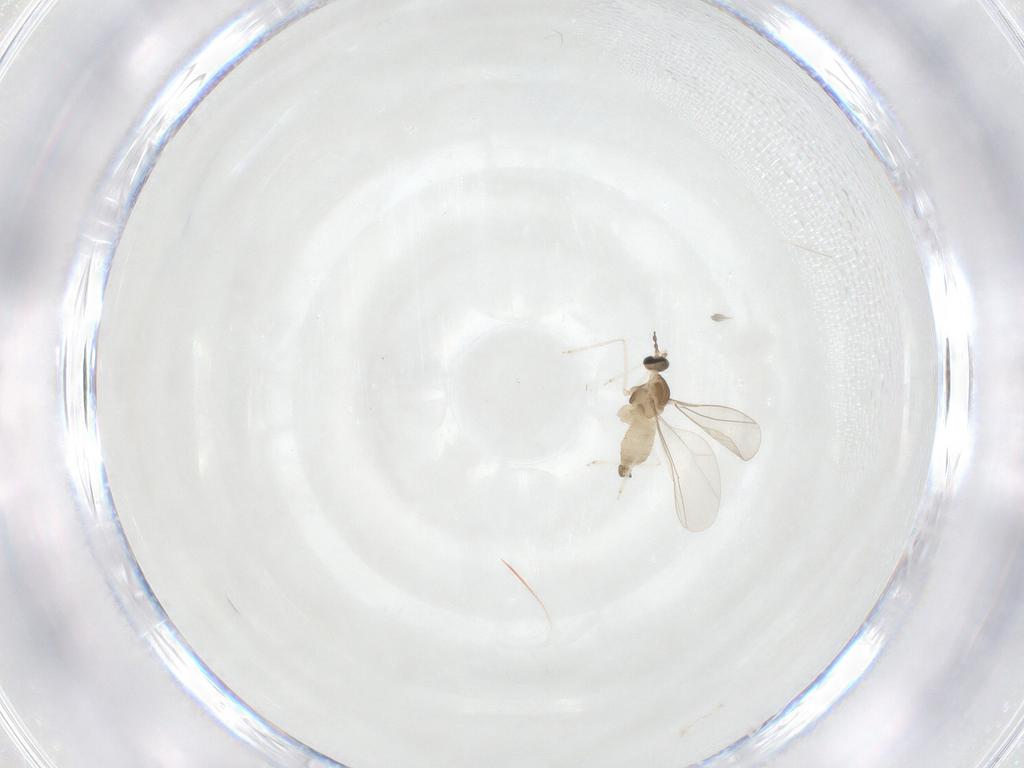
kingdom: Animalia
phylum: Arthropoda
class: Insecta
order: Diptera
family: Cecidomyiidae
